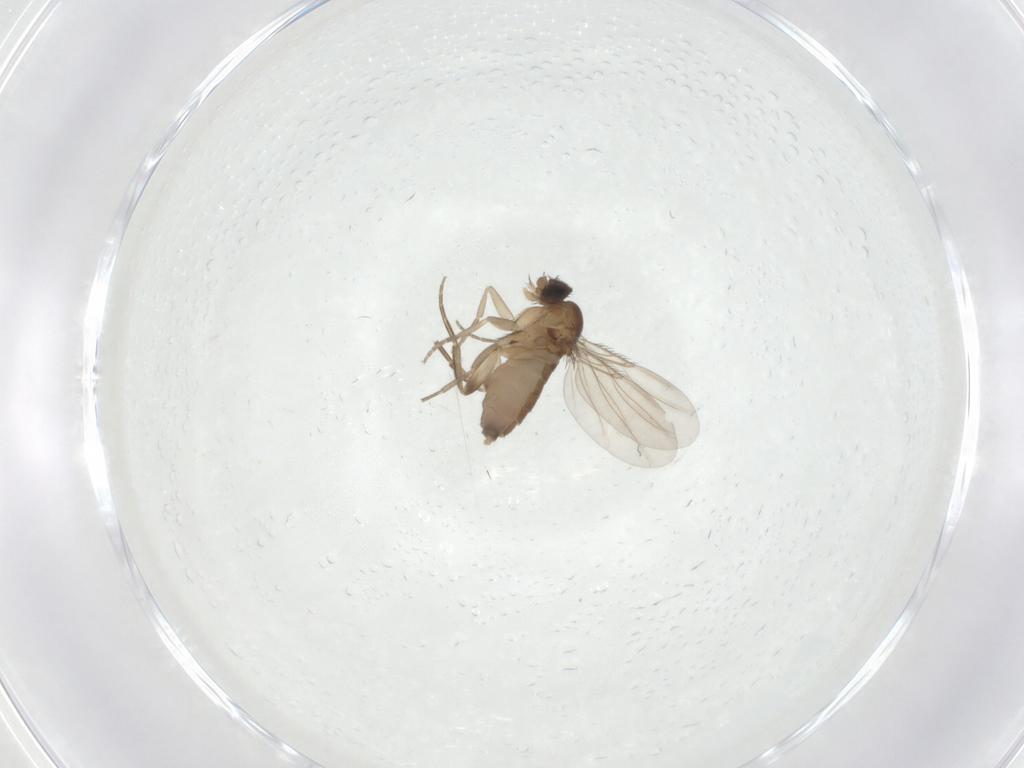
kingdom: Animalia
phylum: Arthropoda
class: Insecta
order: Diptera
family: Phoridae
